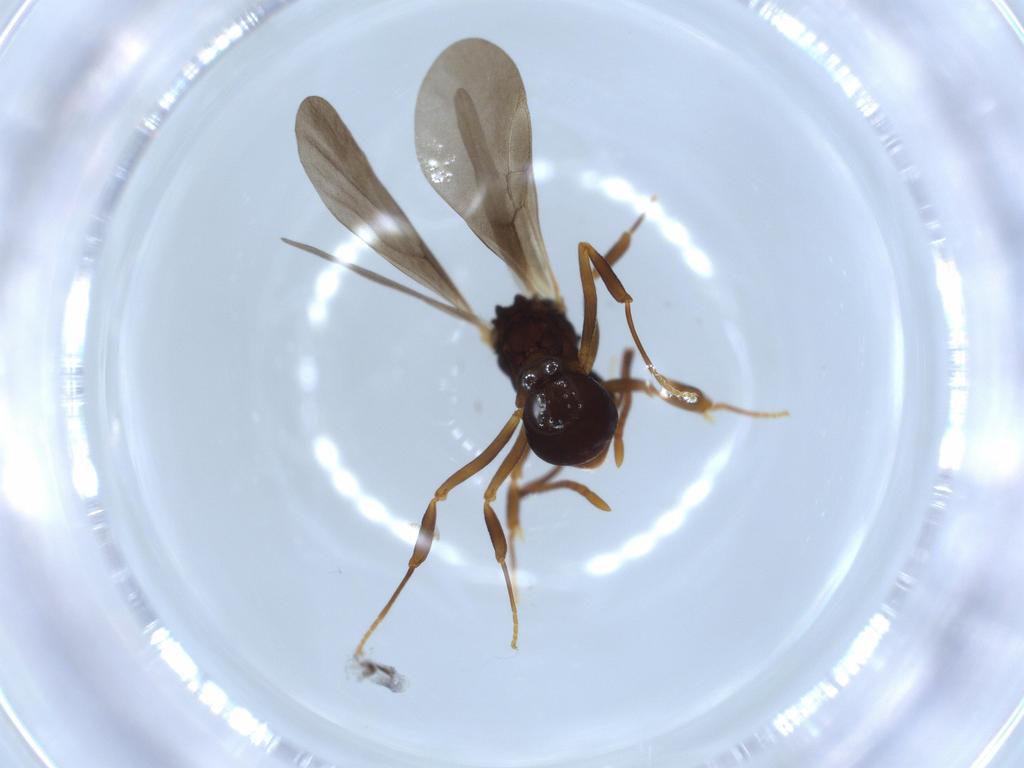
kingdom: Animalia
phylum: Arthropoda
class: Insecta
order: Hymenoptera
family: Formicidae
